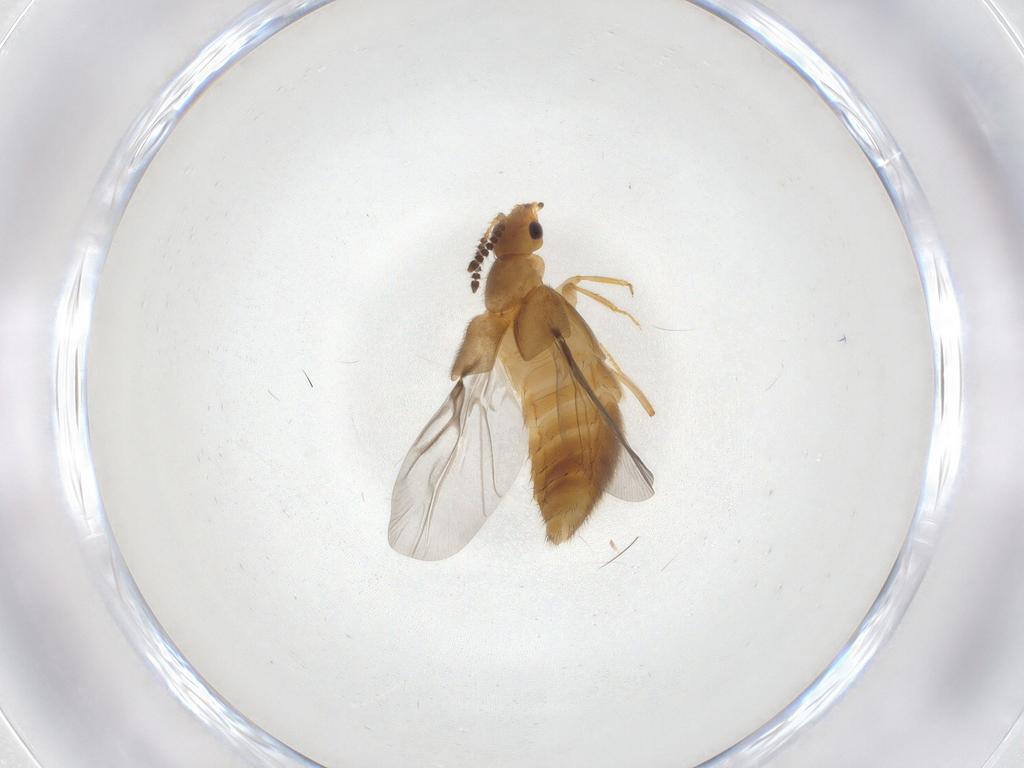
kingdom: Animalia
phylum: Arthropoda
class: Insecta
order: Coleoptera
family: Staphylinidae
